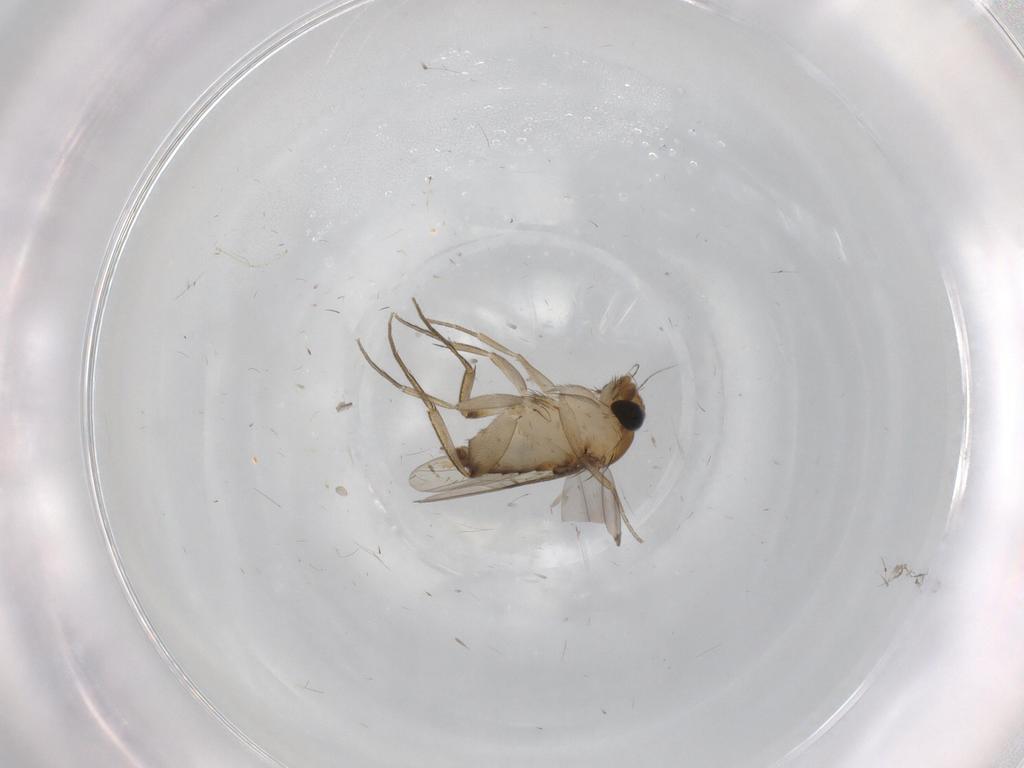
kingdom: Animalia
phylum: Arthropoda
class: Insecta
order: Diptera
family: Phoridae
